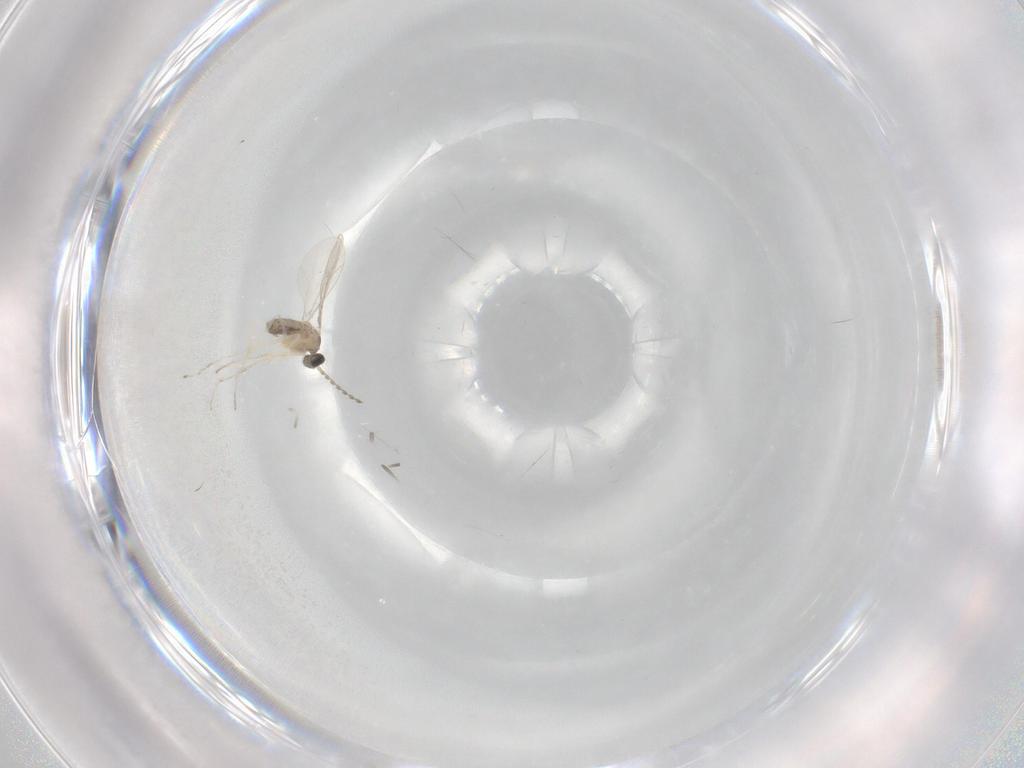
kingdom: Animalia
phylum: Arthropoda
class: Insecta
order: Diptera
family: Cecidomyiidae
